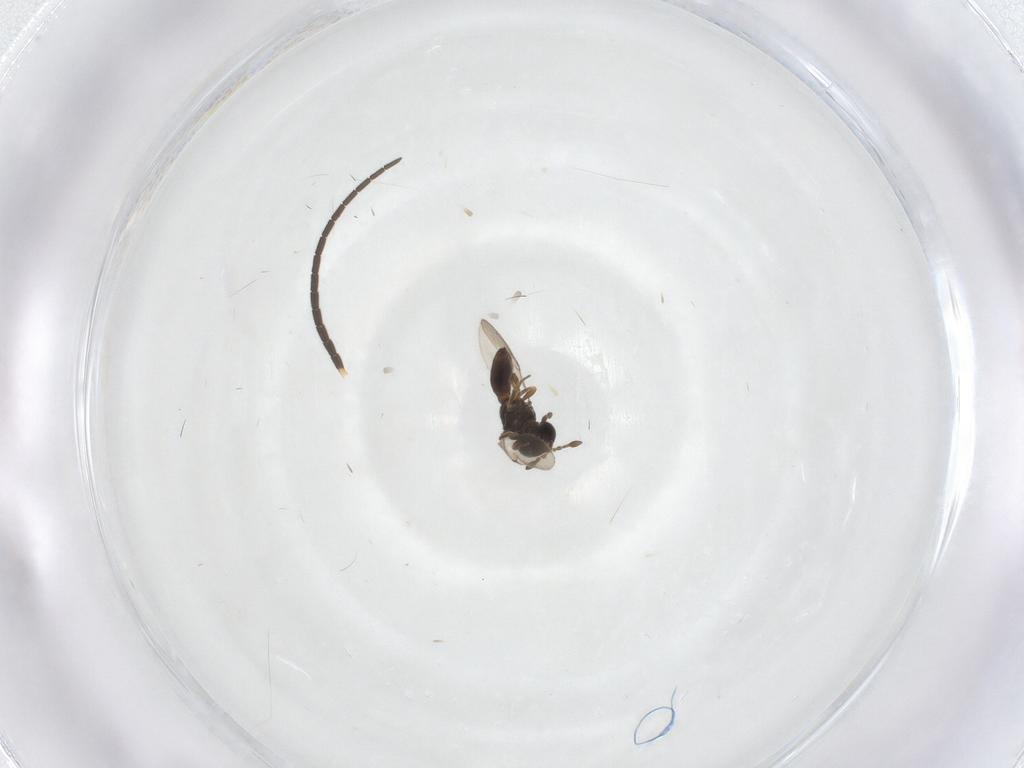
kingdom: Animalia
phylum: Arthropoda
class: Insecta
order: Hymenoptera
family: Scelionidae
